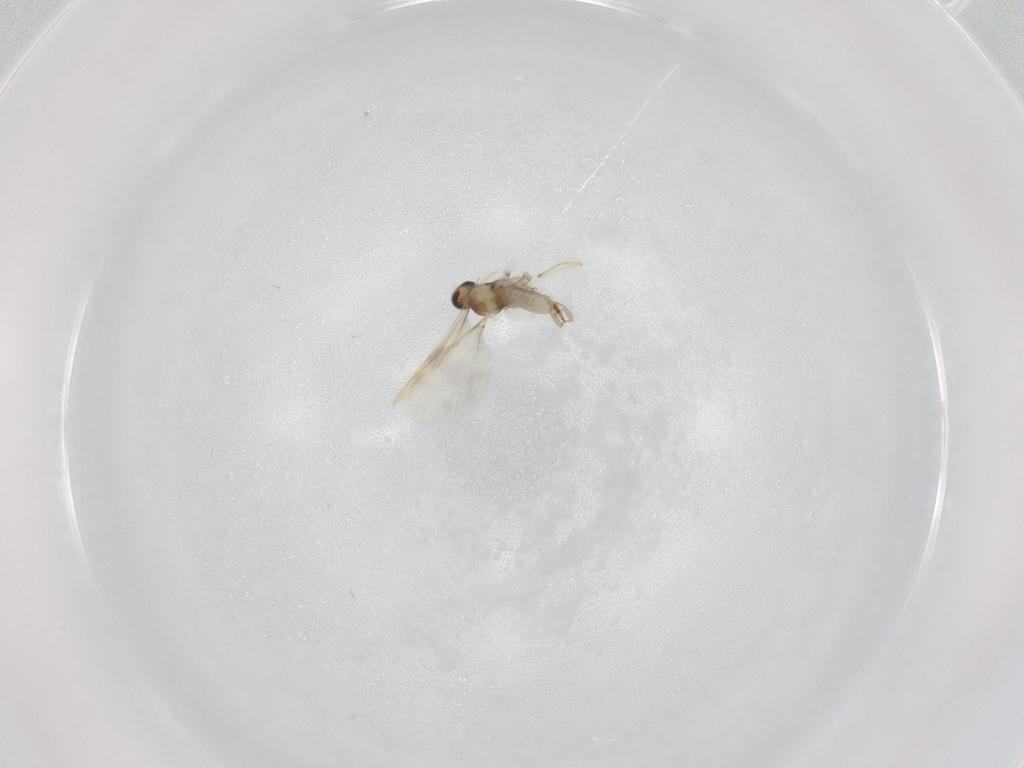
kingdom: Animalia
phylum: Arthropoda
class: Insecta
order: Diptera
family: Cecidomyiidae
